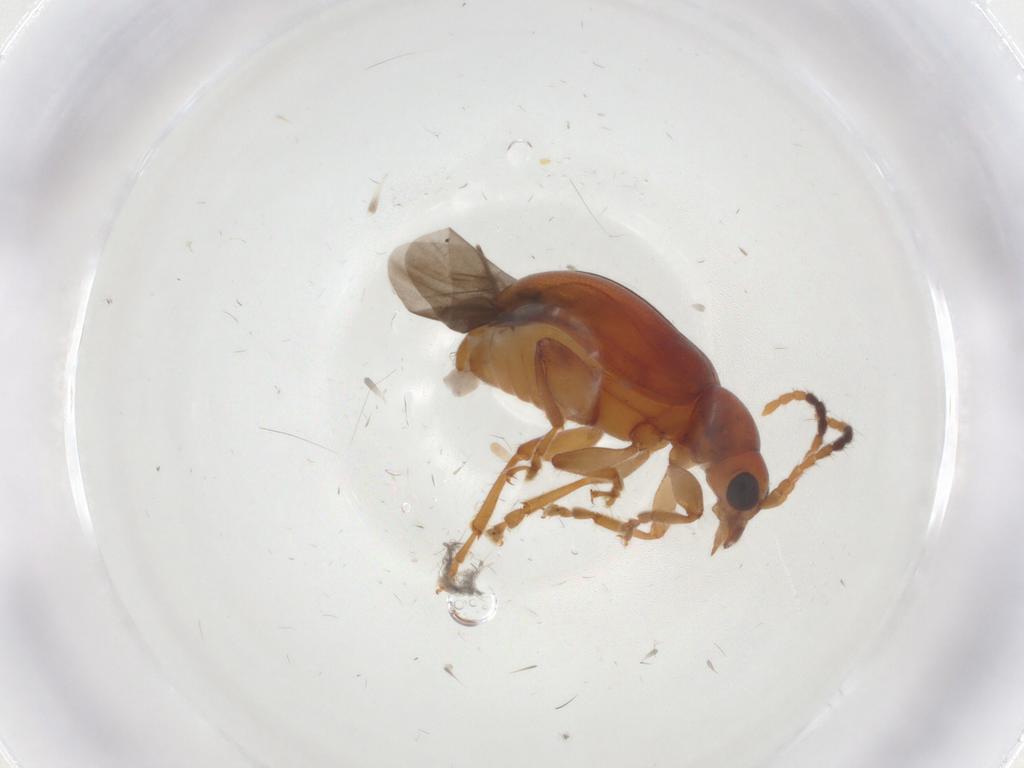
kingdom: Animalia
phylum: Arthropoda
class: Insecta
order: Coleoptera
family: Chrysomelidae
